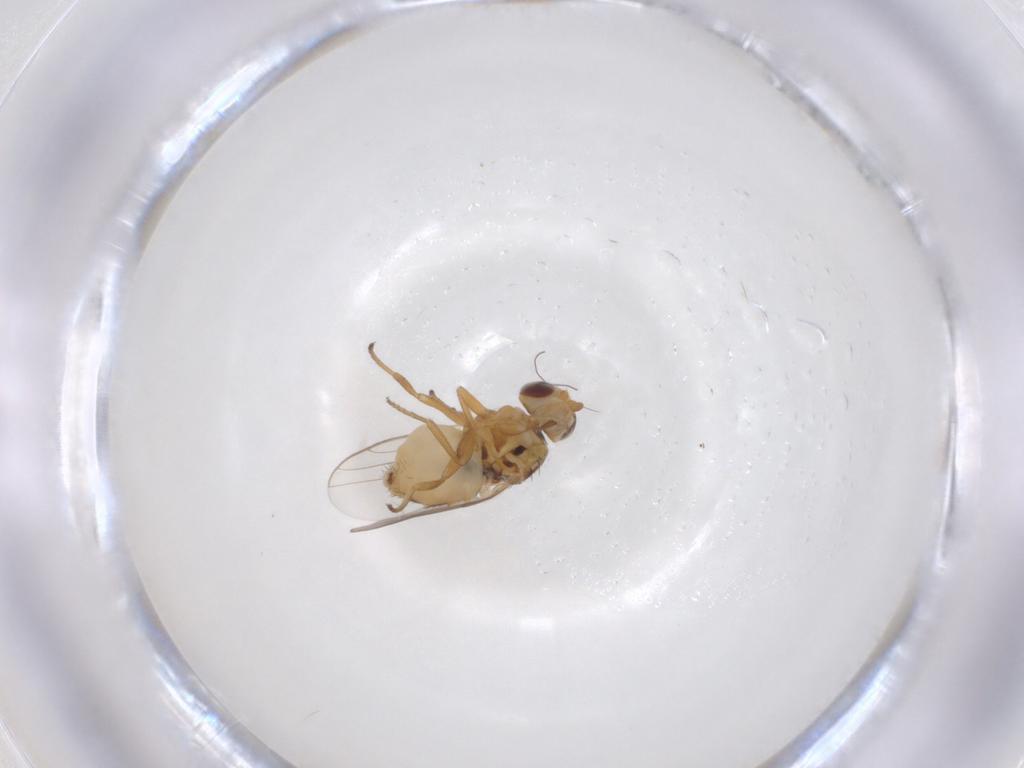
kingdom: Animalia
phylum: Arthropoda
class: Insecta
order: Diptera
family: Chloropidae
